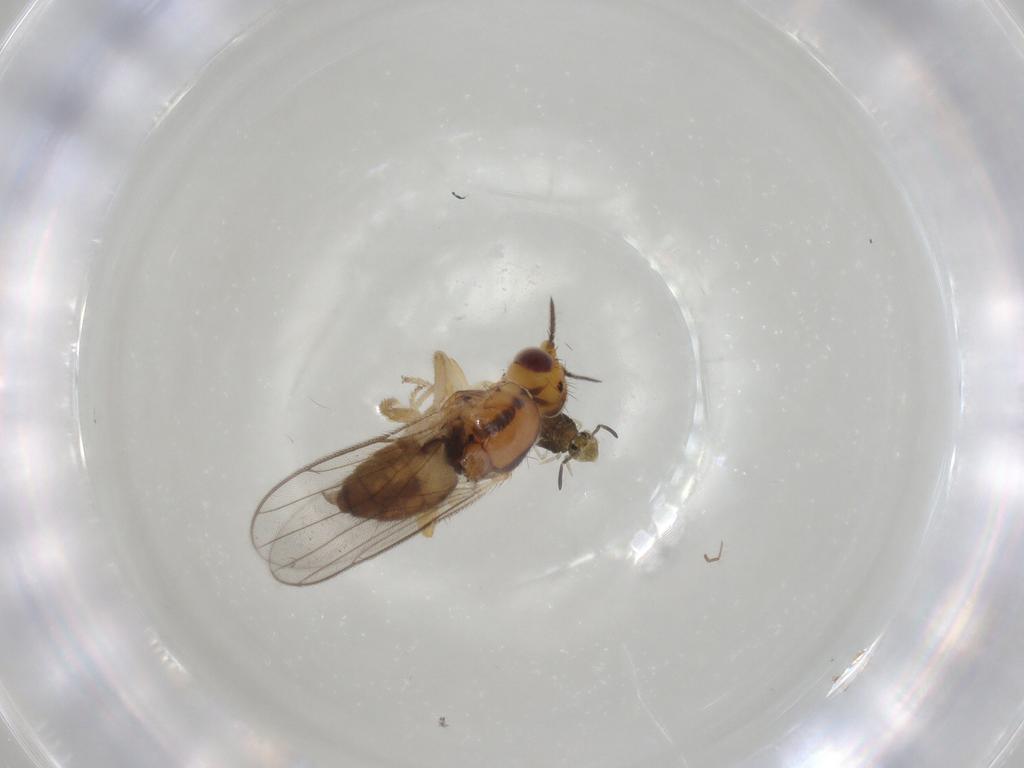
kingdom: Animalia
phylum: Arthropoda
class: Insecta
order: Diptera
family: Chloropidae
